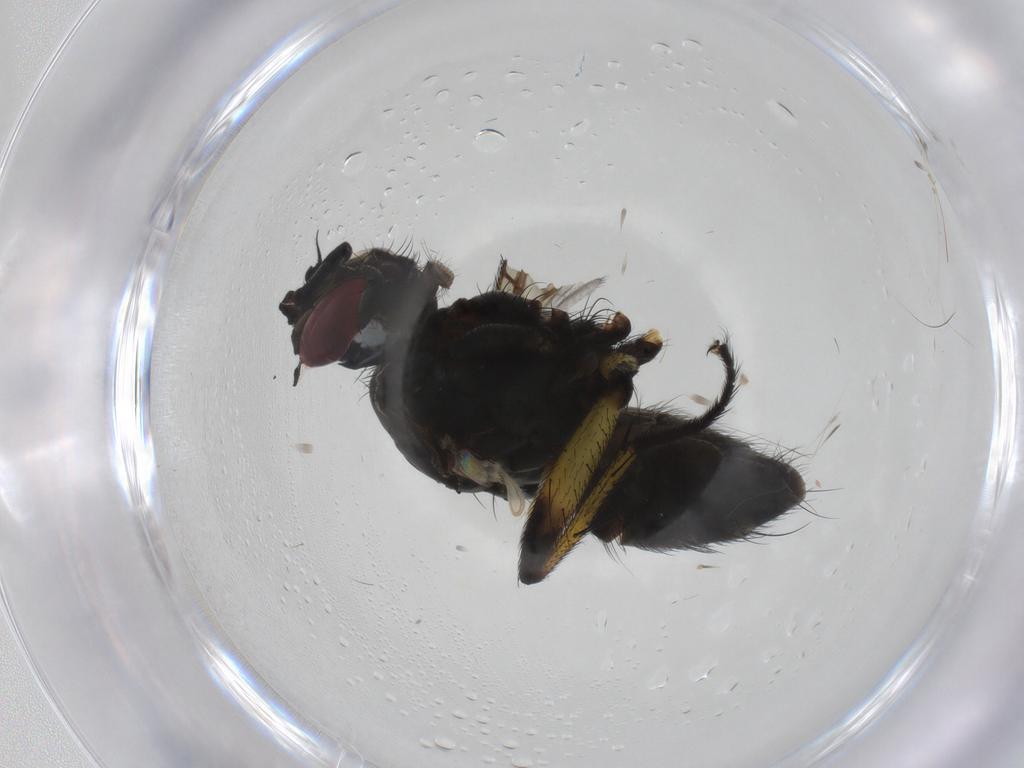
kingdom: Animalia
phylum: Arthropoda
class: Insecta
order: Diptera
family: Muscidae
